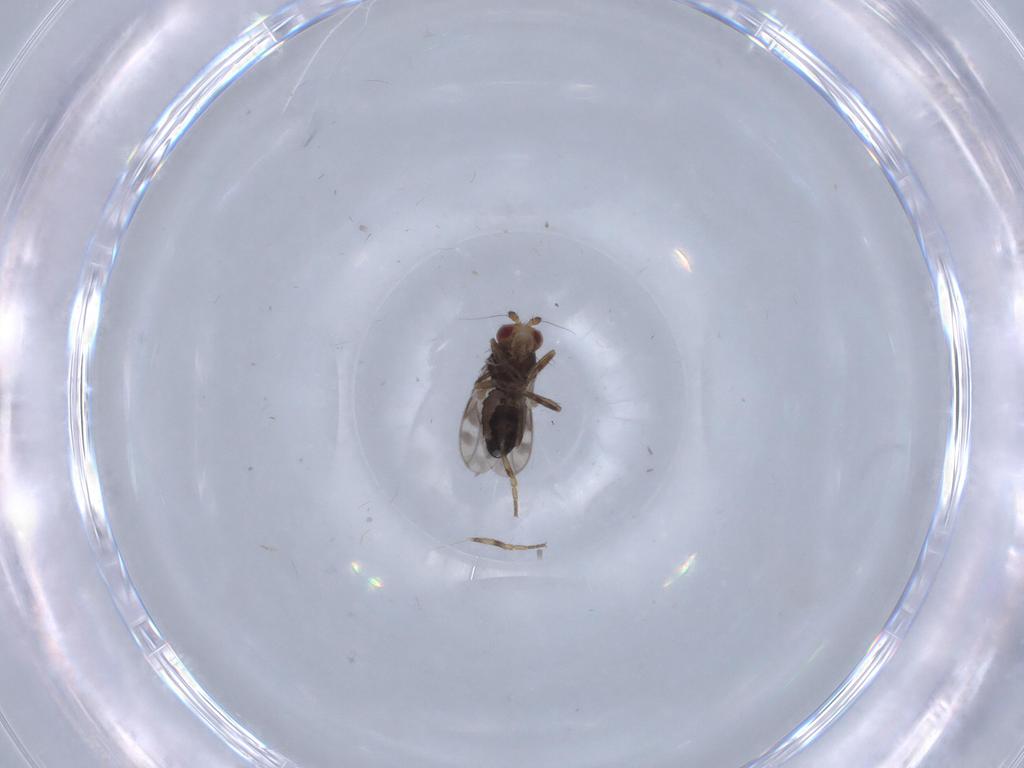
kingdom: Animalia
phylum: Arthropoda
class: Insecta
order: Diptera
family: Sphaeroceridae
